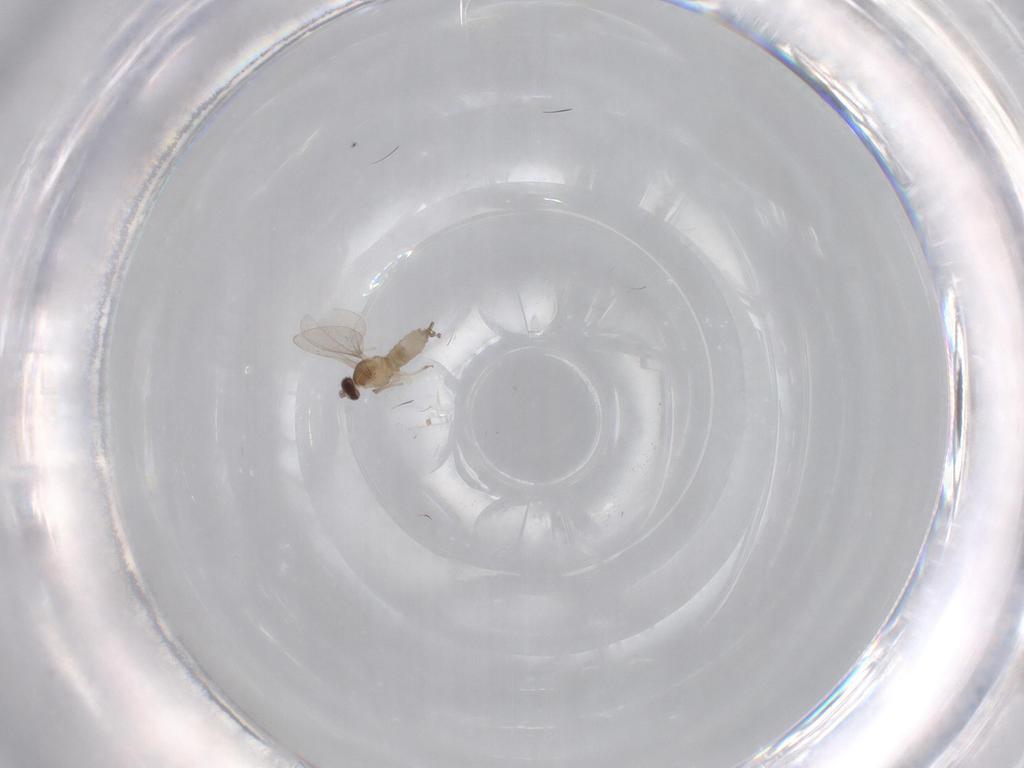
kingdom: Animalia
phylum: Arthropoda
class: Insecta
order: Diptera
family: Cecidomyiidae
